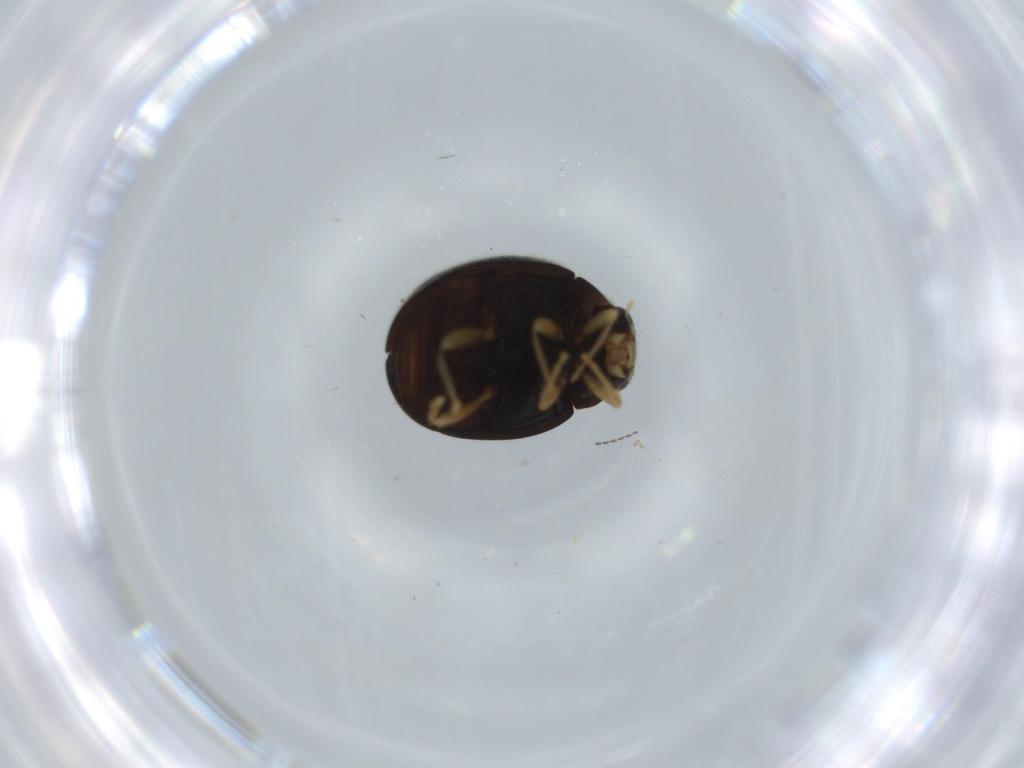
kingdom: Animalia
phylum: Arthropoda
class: Insecta
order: Coleoptera
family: Coccinellidae
